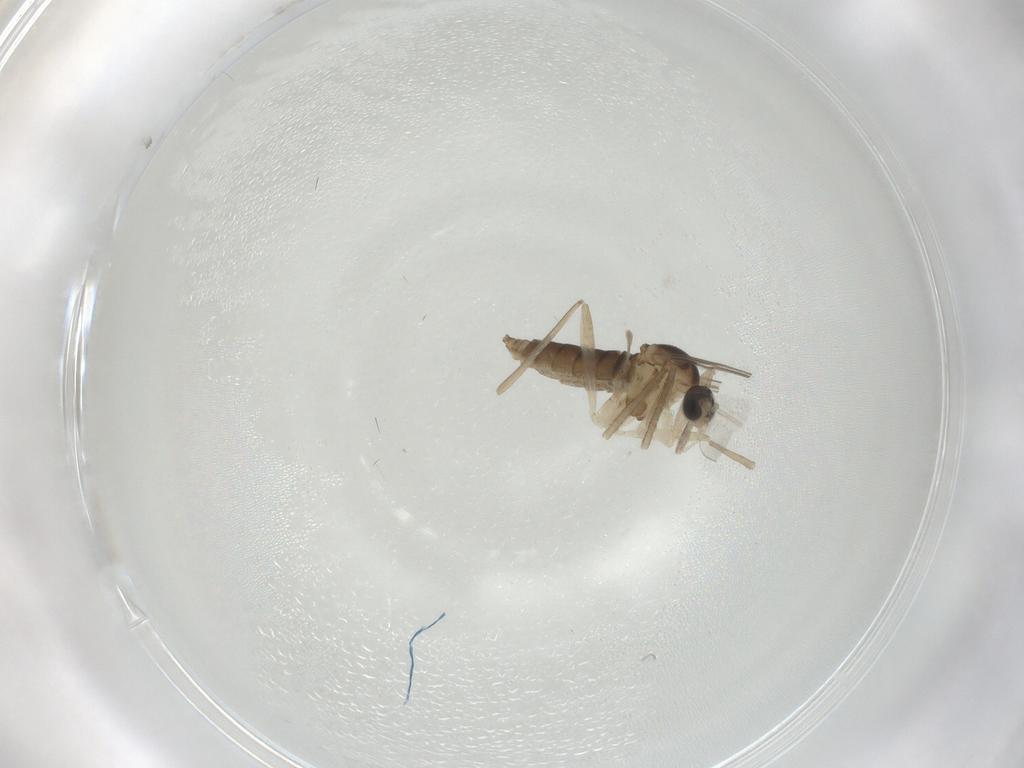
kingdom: Animalia
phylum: Arthropoda
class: Insecta
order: Diptera
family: Cecidomyiidae
